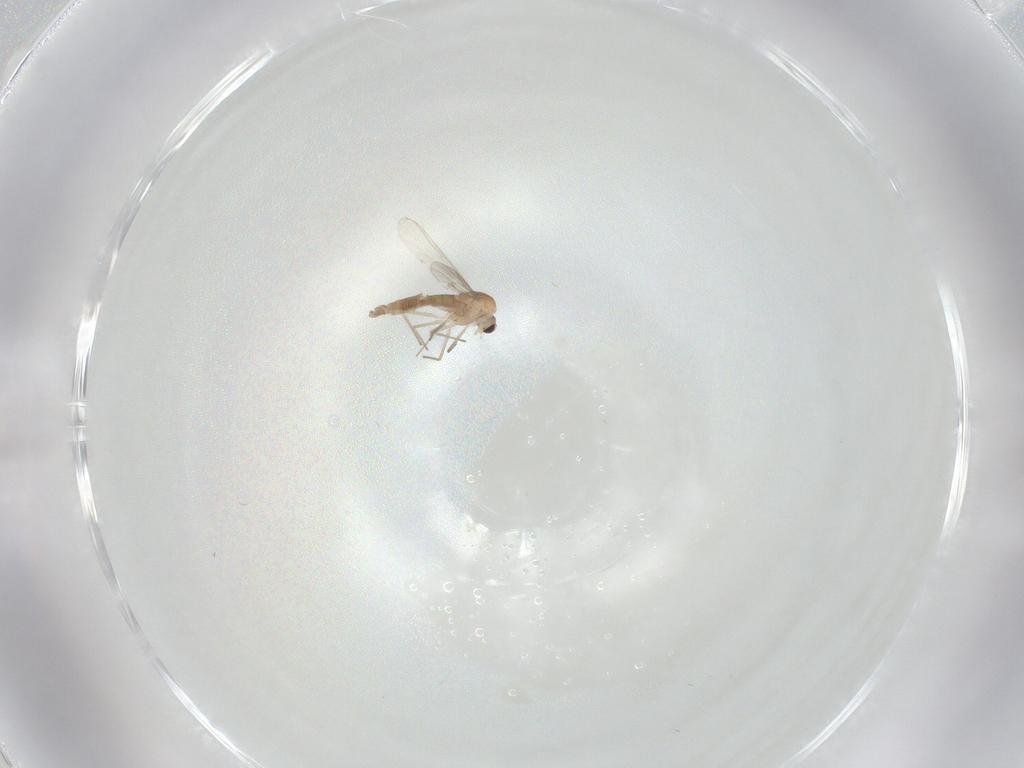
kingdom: Animalia
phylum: Arthropoda
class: Insecta
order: Diptera
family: Chironomidae
